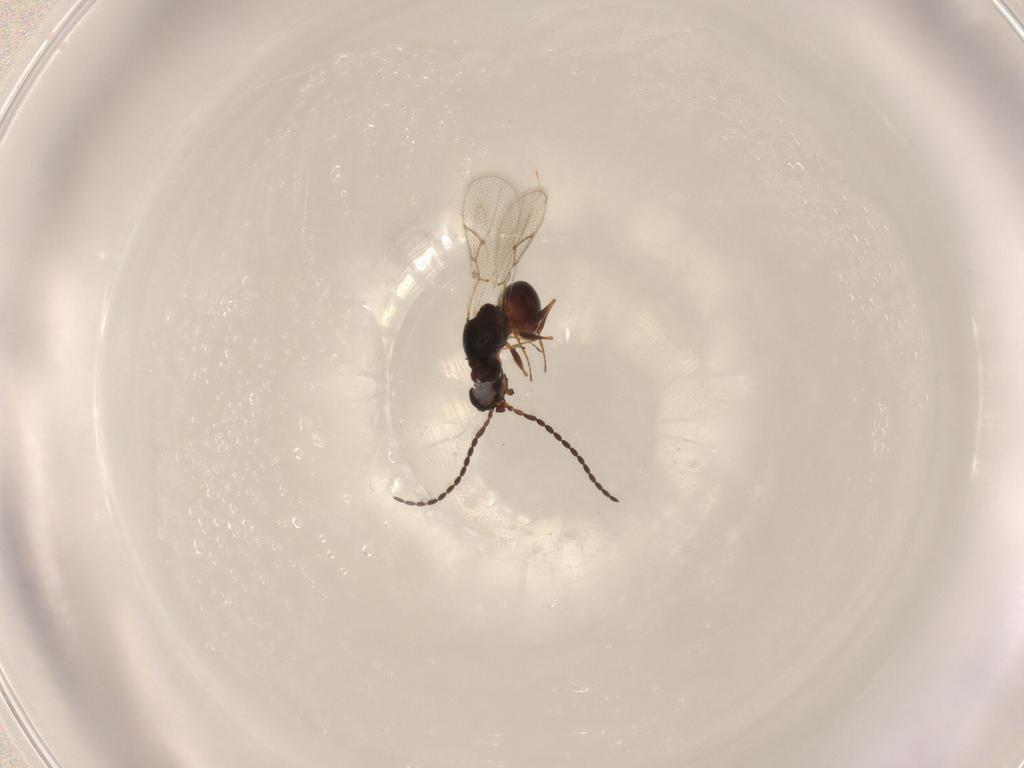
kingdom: Animalia
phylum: Arthropoda
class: Insecta
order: Hymenoptera
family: Figitidae
